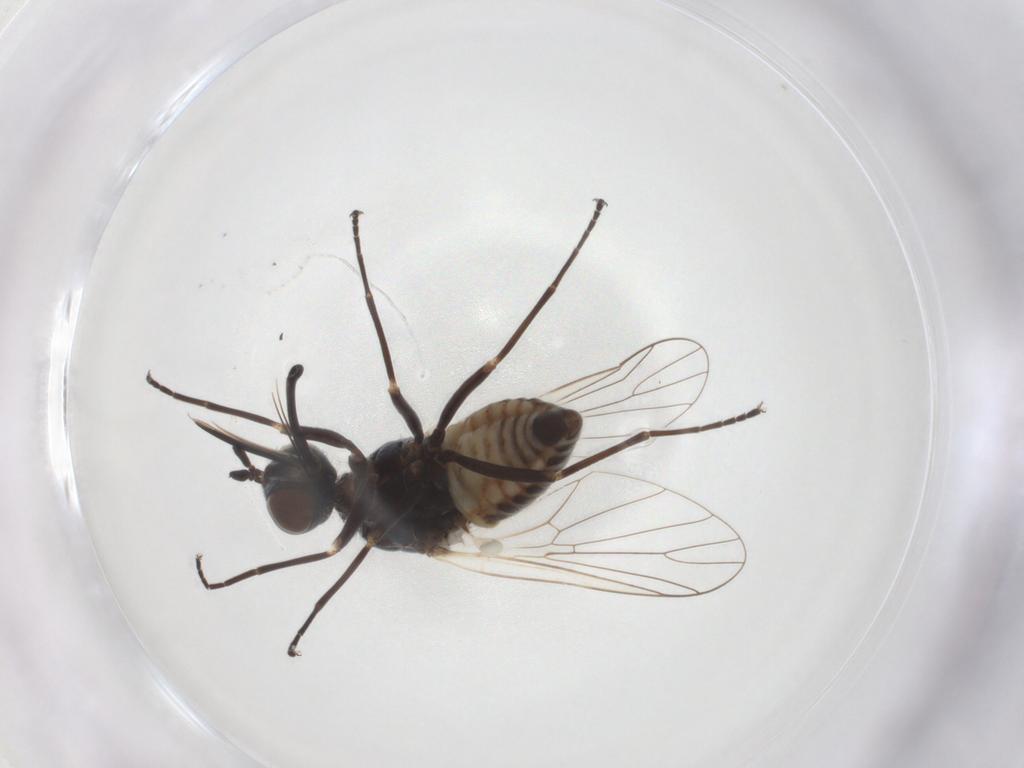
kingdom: Animalia
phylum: Arthropoda
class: Insecta
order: Diptera
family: Bombyliidae
